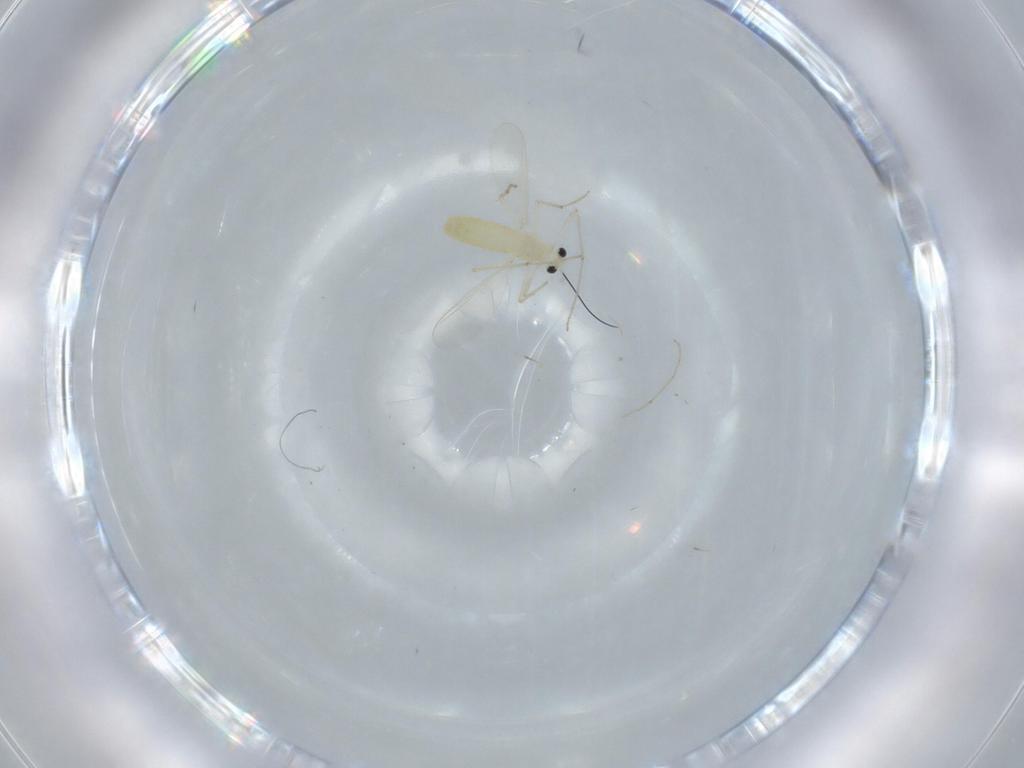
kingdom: Animalia
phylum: Arthropoda
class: Insecta
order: Diptera
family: Chironomidae
